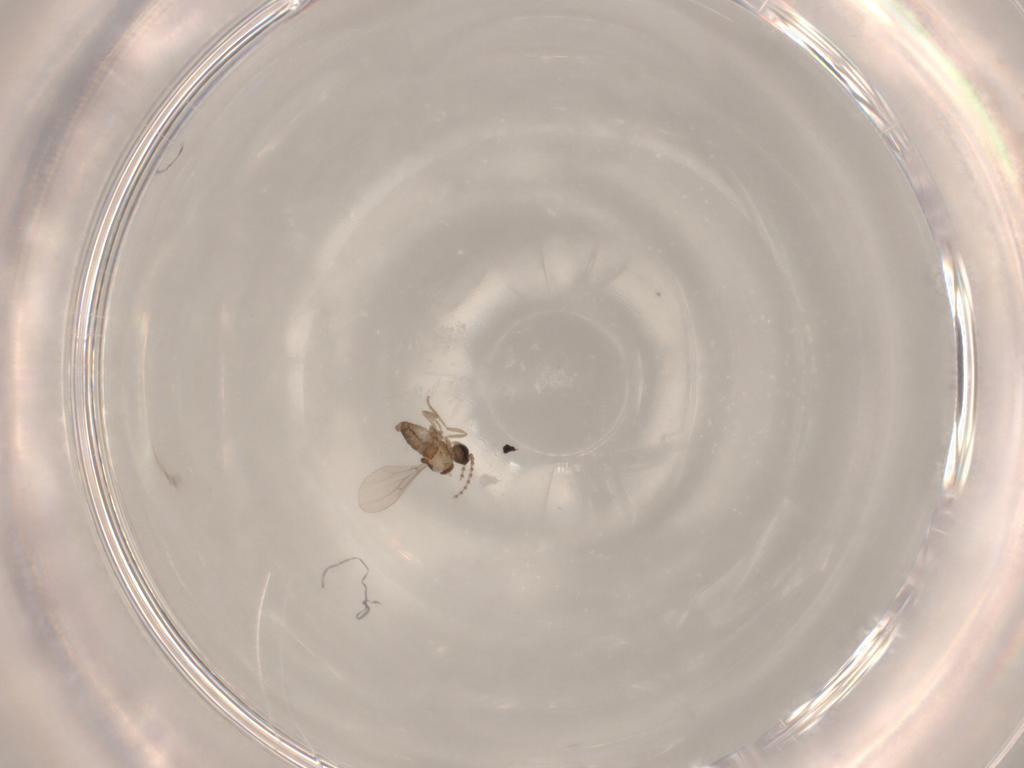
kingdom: Animalia
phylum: Arthropoda
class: Insecta
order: Diptera
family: Cecidomyiidae
